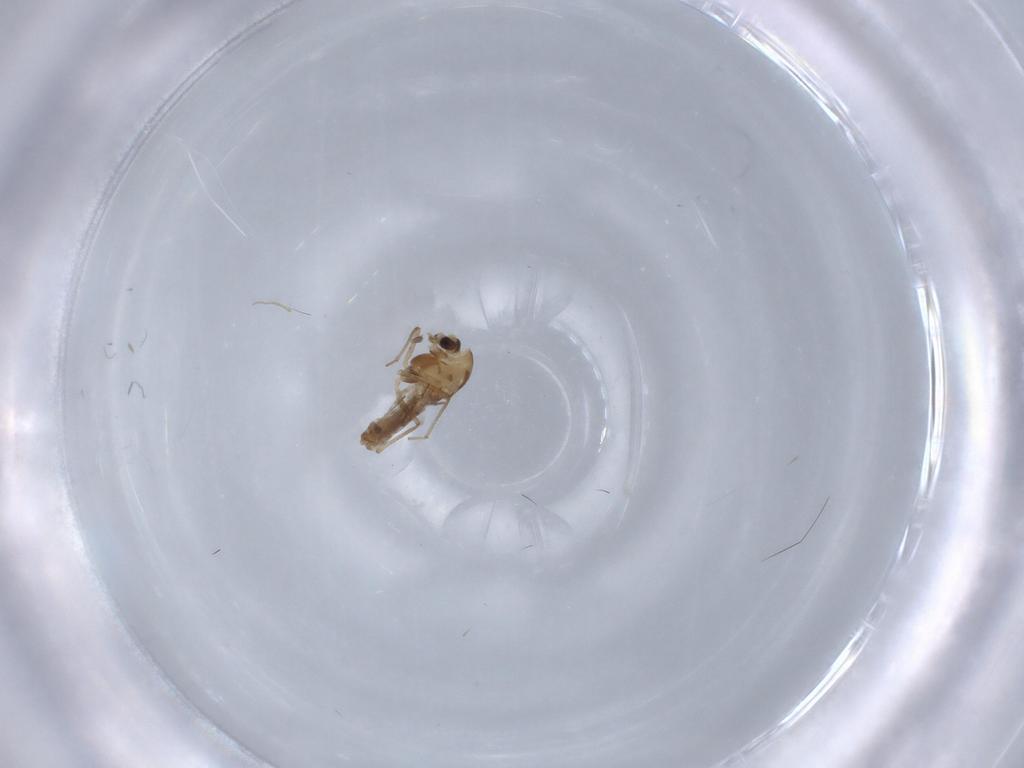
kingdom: Animalia
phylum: Arthropoda
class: Insecta
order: Diptera
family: Chironomidae
